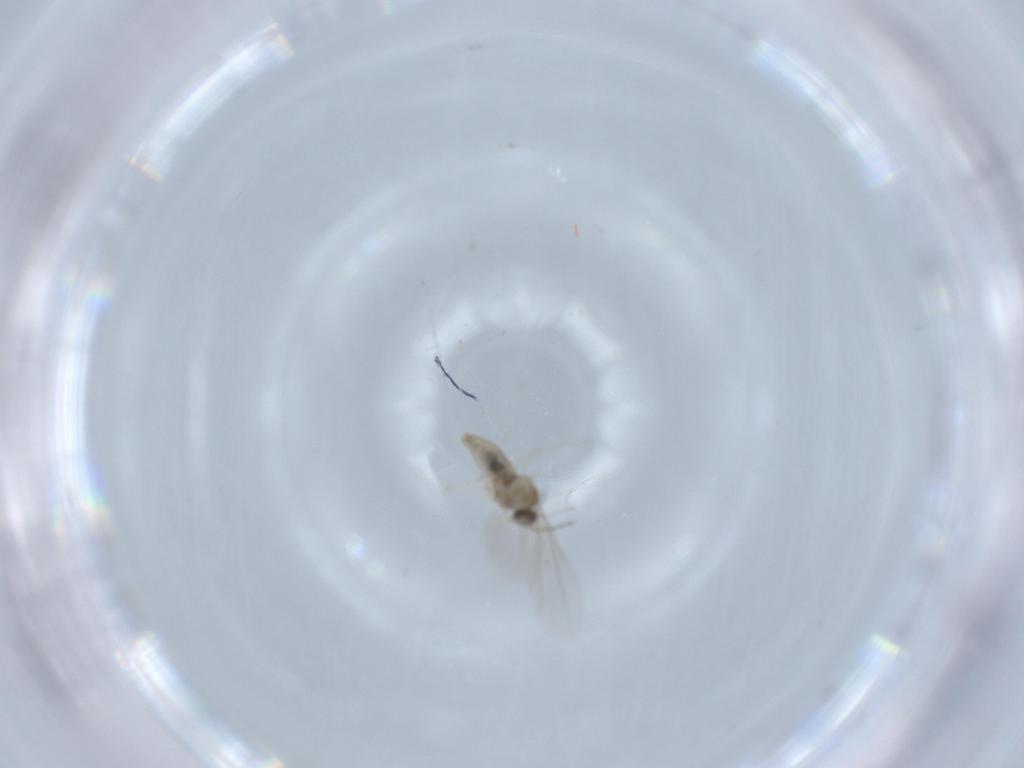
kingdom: Animalia
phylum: Arthropoda
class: Insecta
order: Diptera
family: Cecidomyiidae
